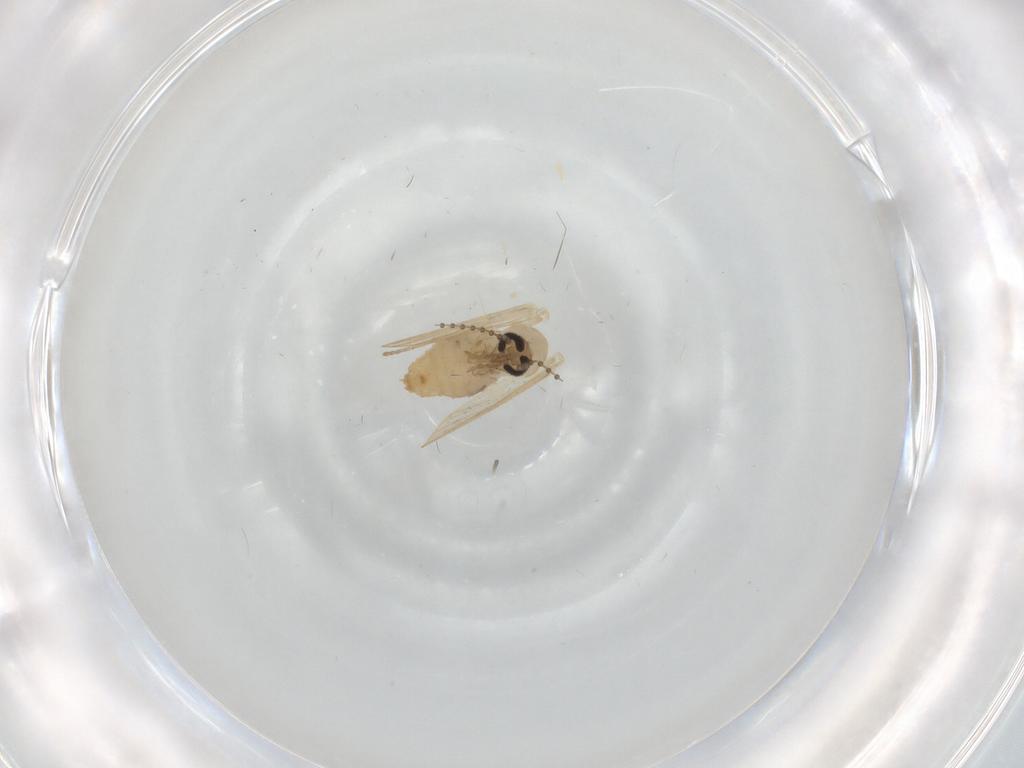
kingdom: Animalia
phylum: Arthropoda
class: Insecta
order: Diptera
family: Psychodidae
